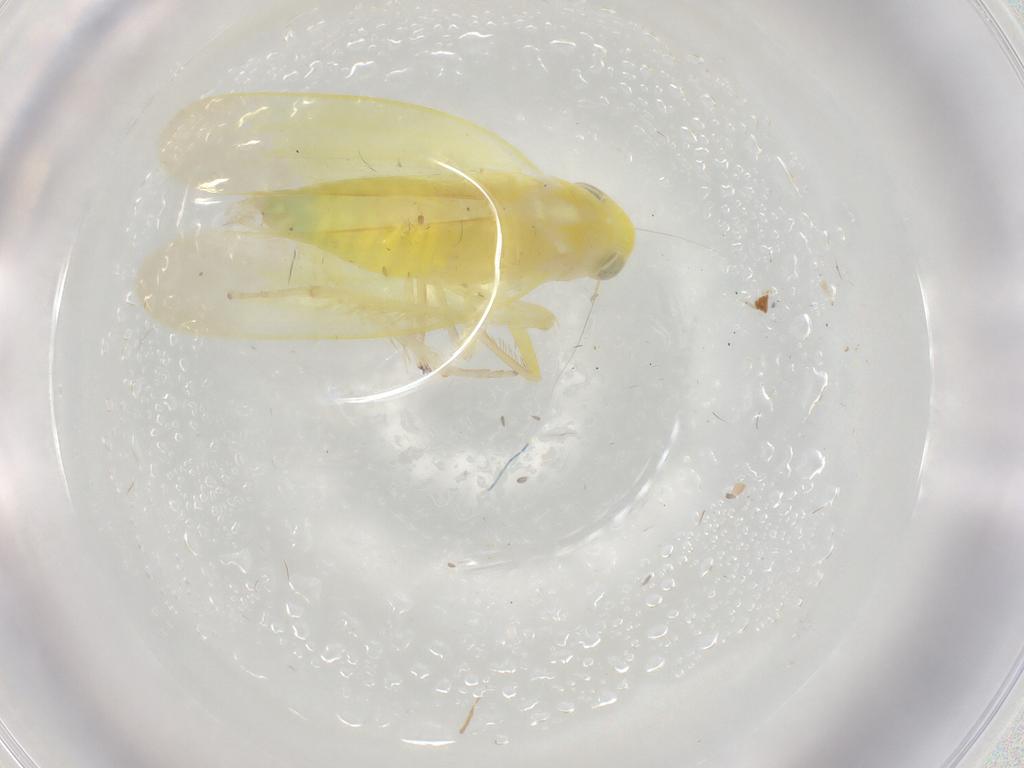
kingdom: Animalia
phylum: Arthropoda
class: Insecta
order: Hemiptera
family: Cicadellidae
